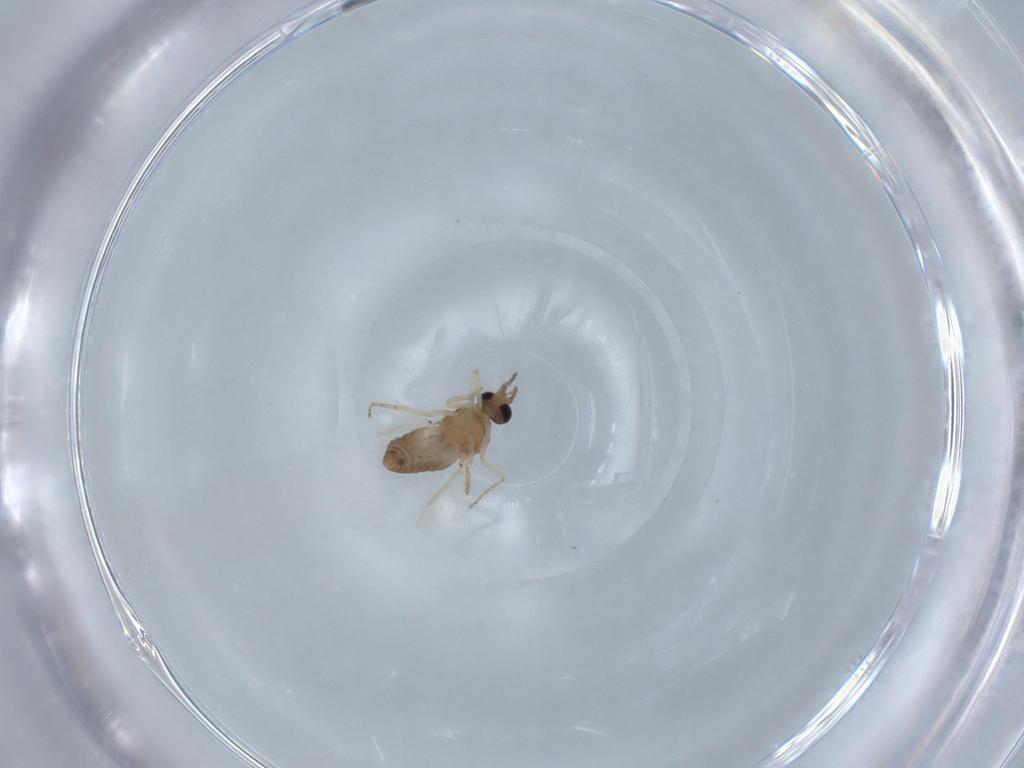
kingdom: Animalia
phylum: Arthropoda
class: Insecta
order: Diptera
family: Ceratopogonidae
